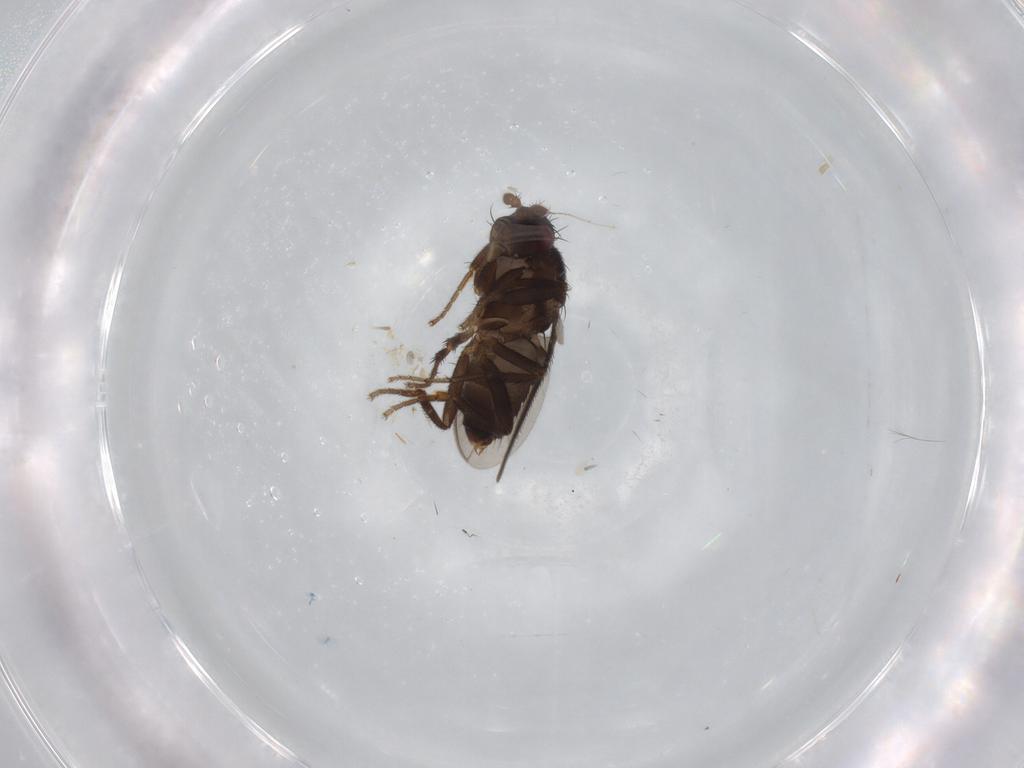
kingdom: Animalia
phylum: Arthropoda
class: Insecta
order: Diptera
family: Sphaeroceridae
